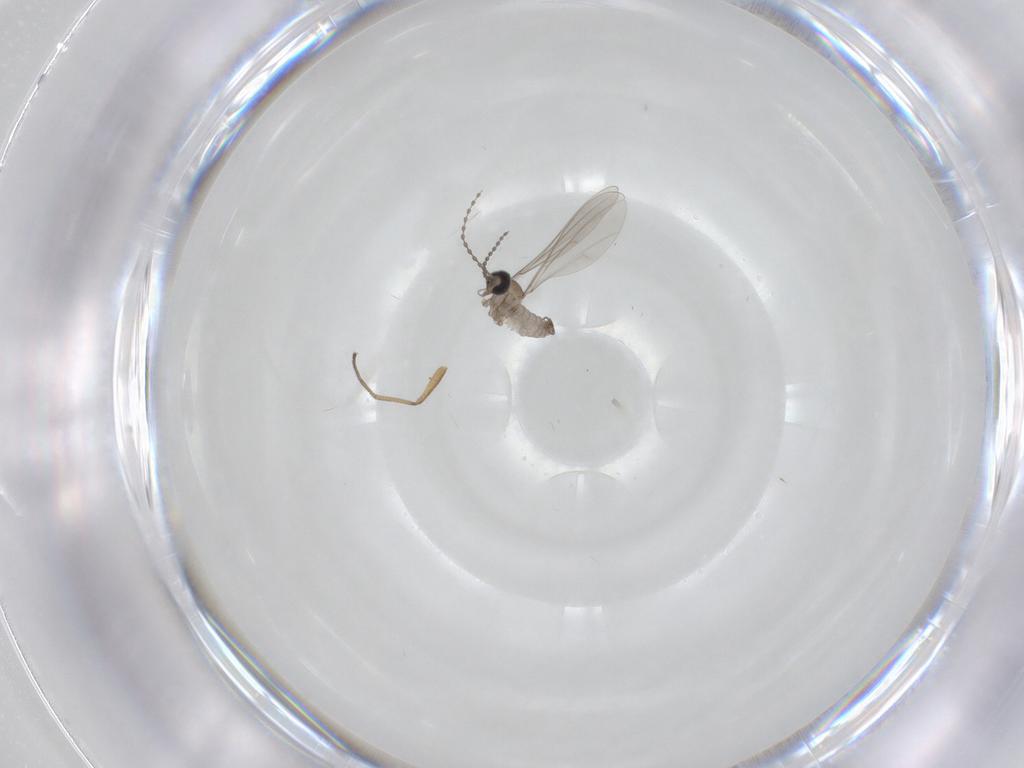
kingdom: Animalia
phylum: Arthropoda
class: Insecta
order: Diptera
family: Dolichopodidae
